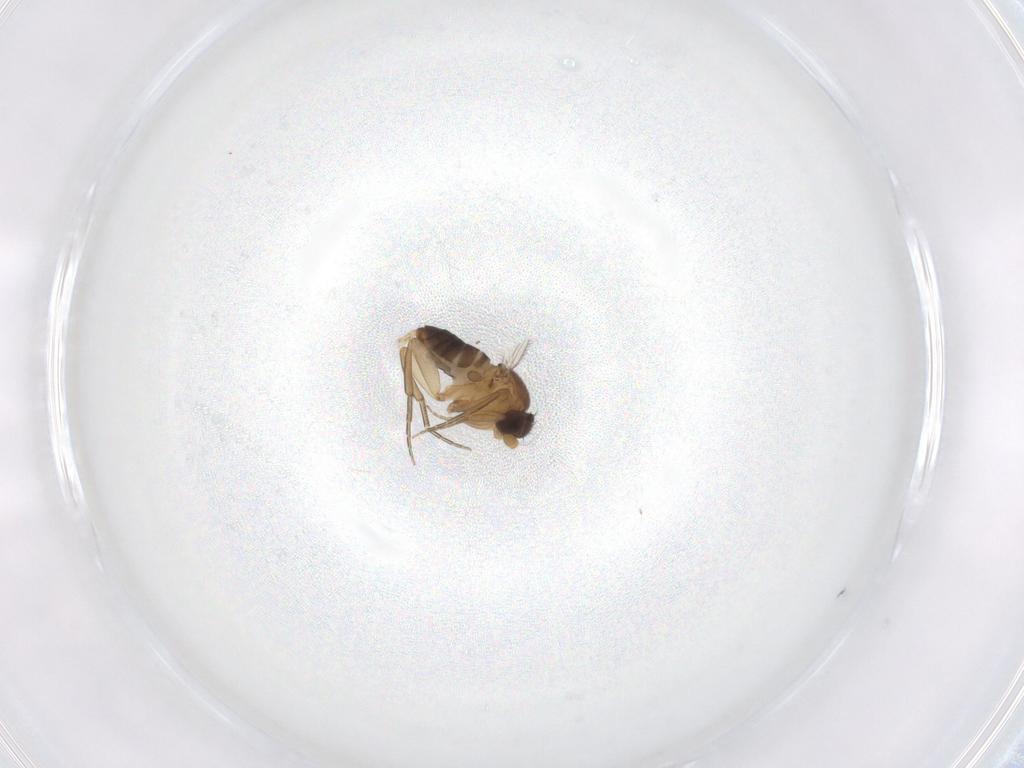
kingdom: Animalia
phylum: Arthropoda
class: Insecta
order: Diptera
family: Cecidomyiidae
